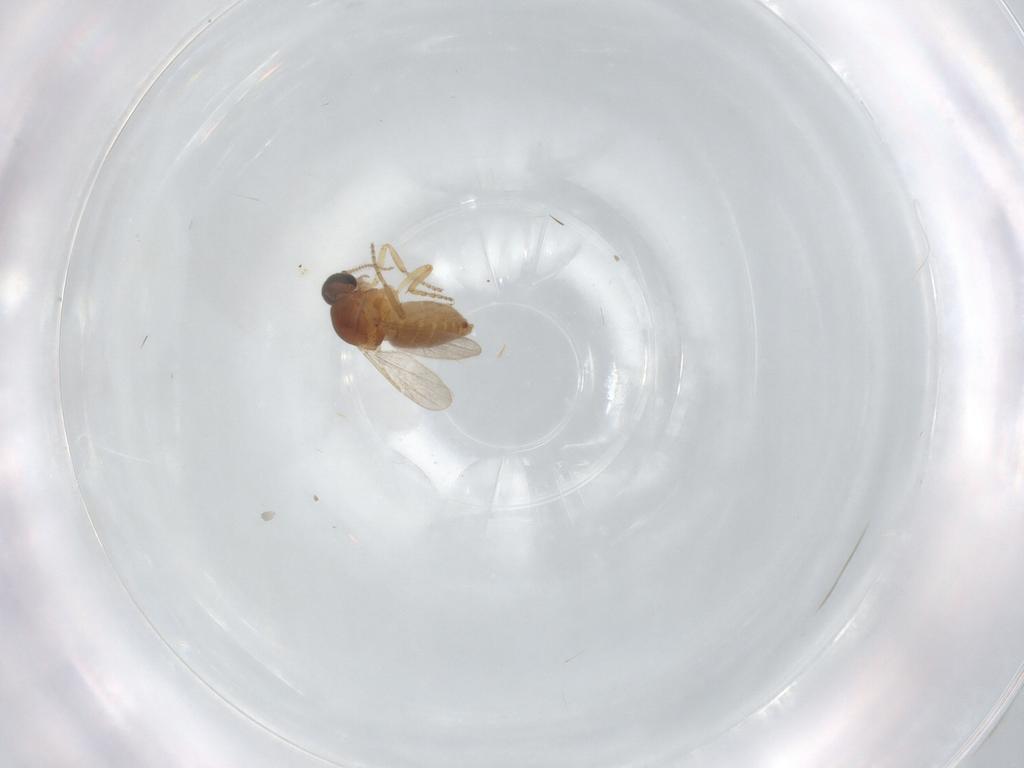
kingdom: Animalia
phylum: Arthropoda
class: Insecta
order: Diptera
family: Ceratopogonidae
